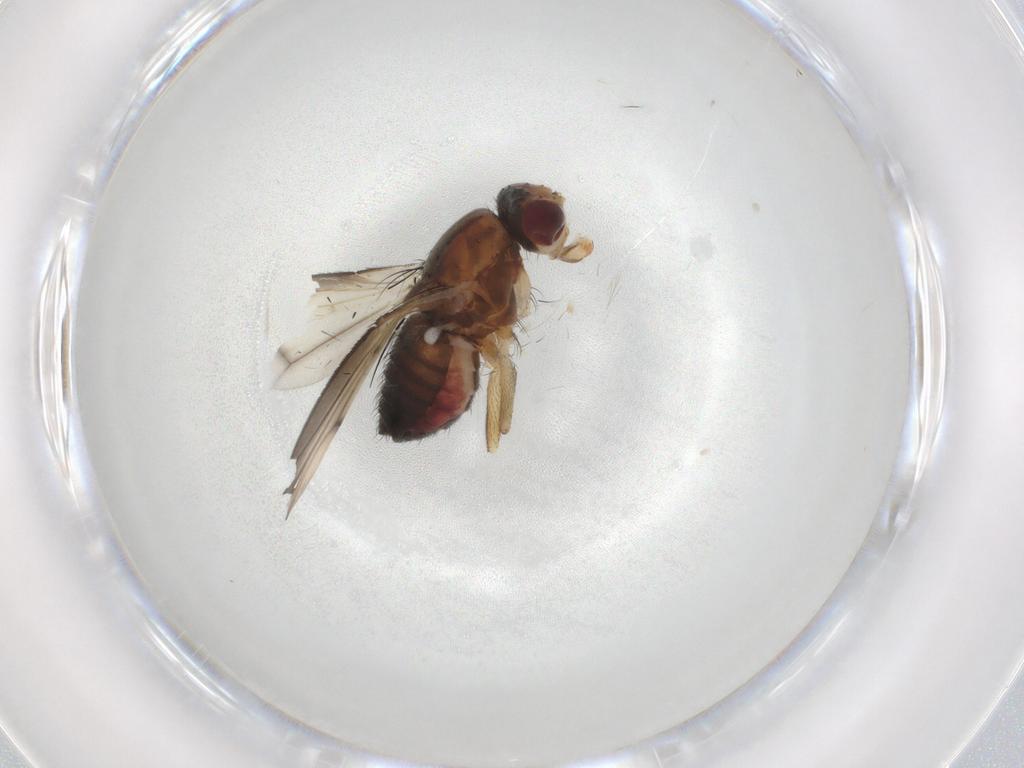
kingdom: Animalia
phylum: Arthropoda
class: Insecta
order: Diptera
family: Heleomyzidae
